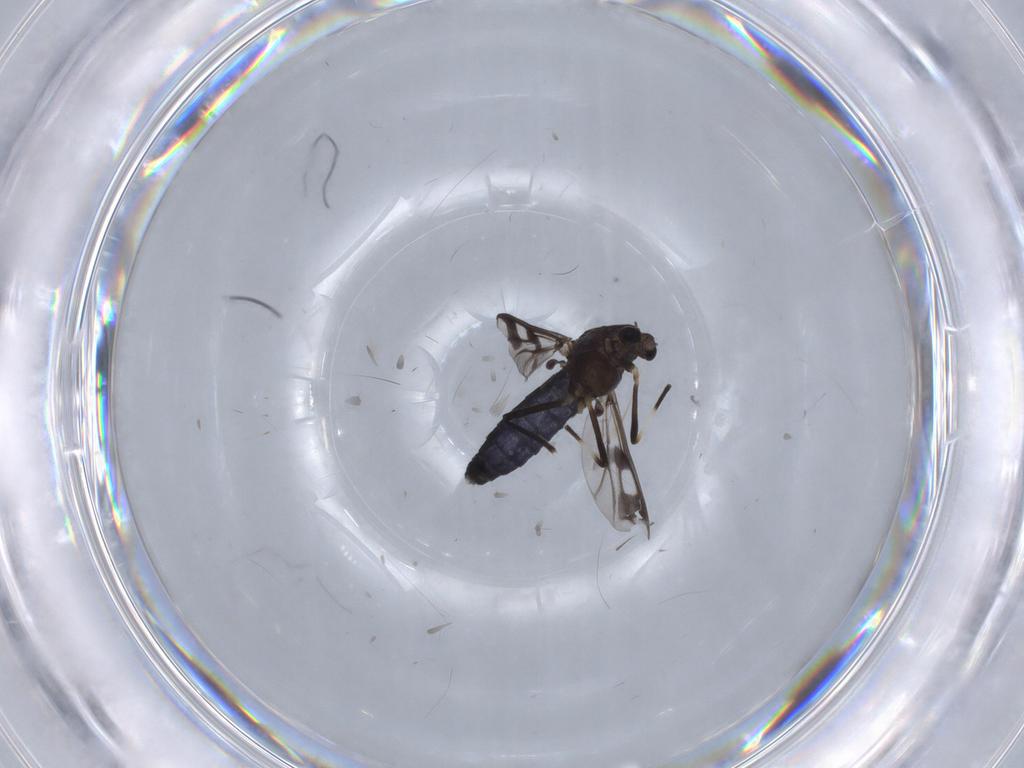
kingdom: Animalia
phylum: Arthropoda
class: Insecta
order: Diptera
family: Chironomidae
